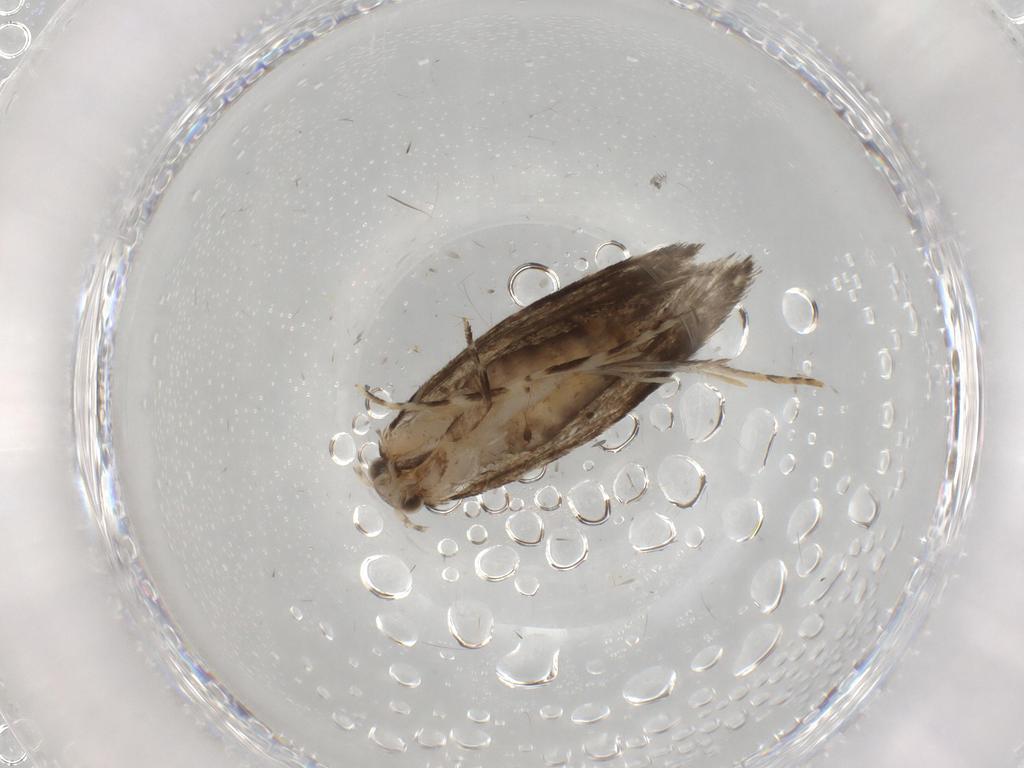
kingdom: Animalia
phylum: Arthropoda
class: Insecta
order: Lepidoptera
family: Tineidae
